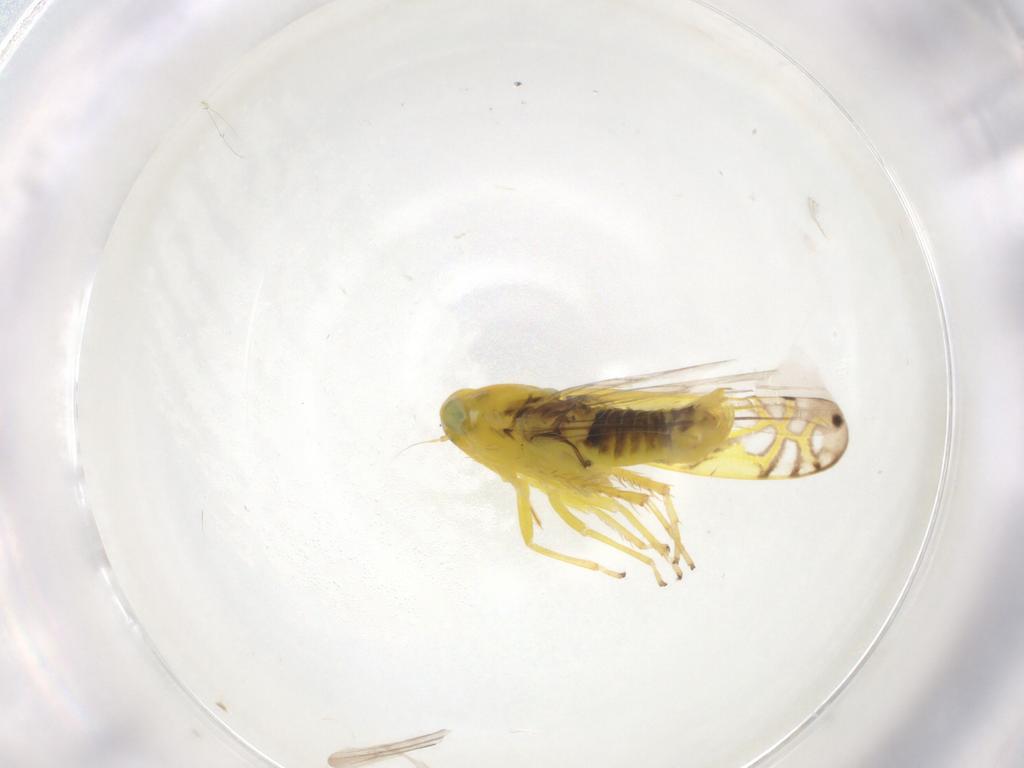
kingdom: Animalia
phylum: Arthropoda
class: Insecta
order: Hemiptera
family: Cicadellidae
